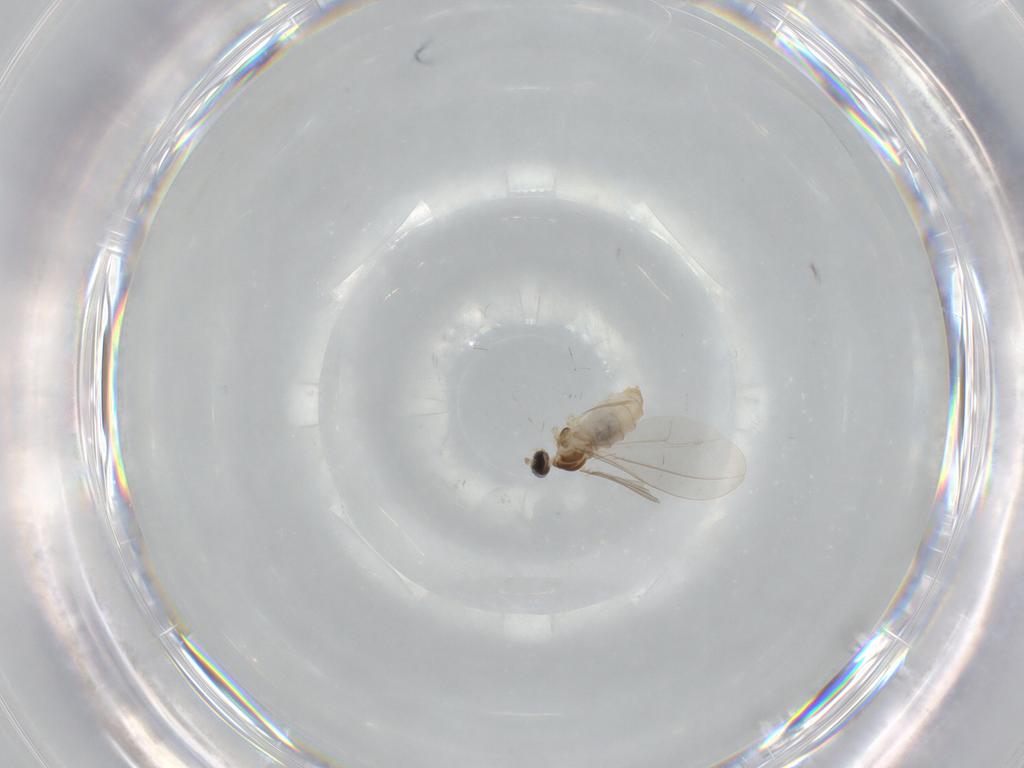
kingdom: Animalia
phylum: Arthropoda
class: Insecta
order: Diptera
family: Cecidomyiidae
